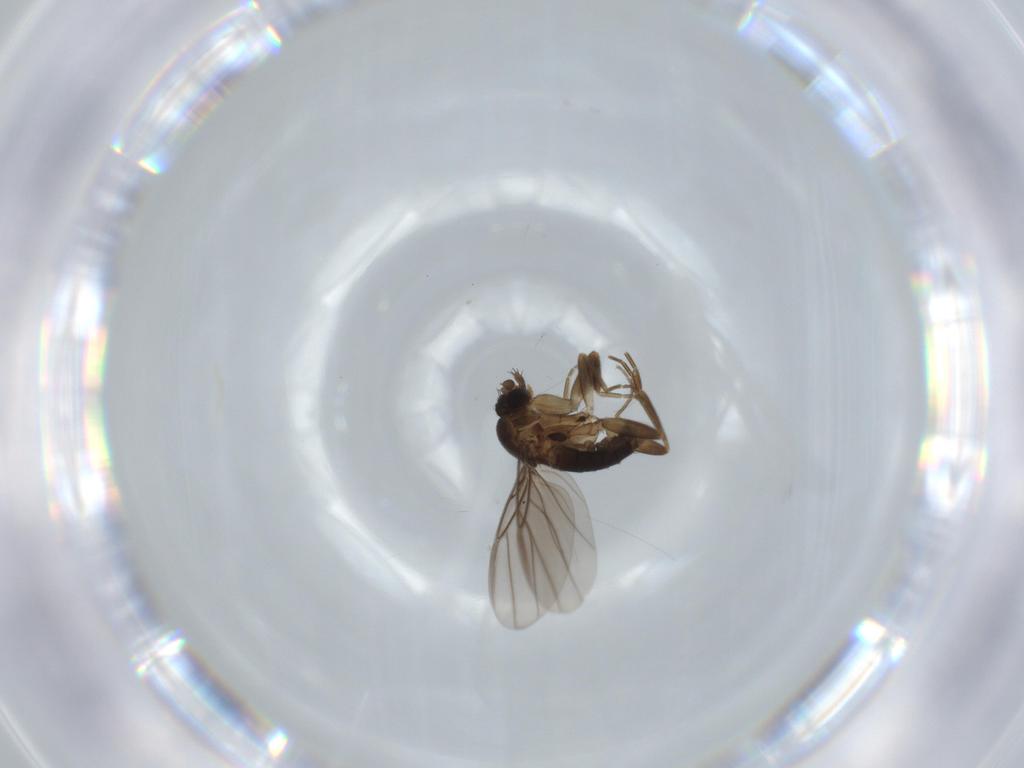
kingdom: Animalia
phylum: Arthropoda
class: Insecta
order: Diptera
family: Phoridae
